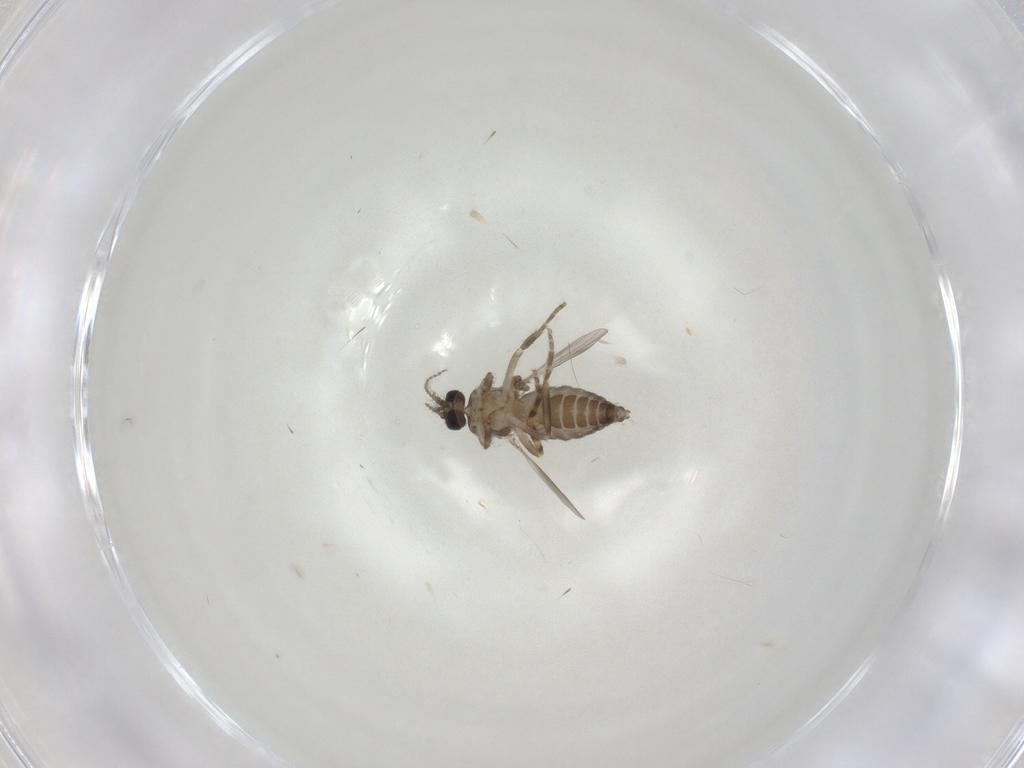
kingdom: Animalia
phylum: Arthropoda
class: Insecta
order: Diptera
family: Ceratopogonidae
